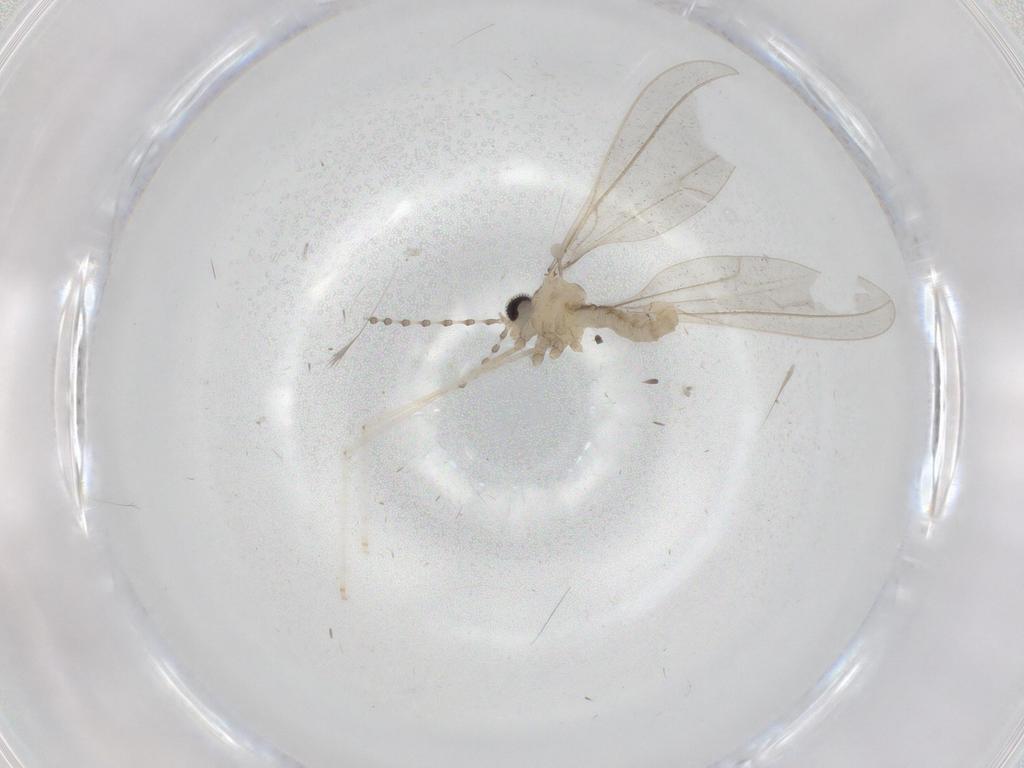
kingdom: Animalia
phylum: Arthropoda
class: Insecta
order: Diptera
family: Cecidomyiidae
